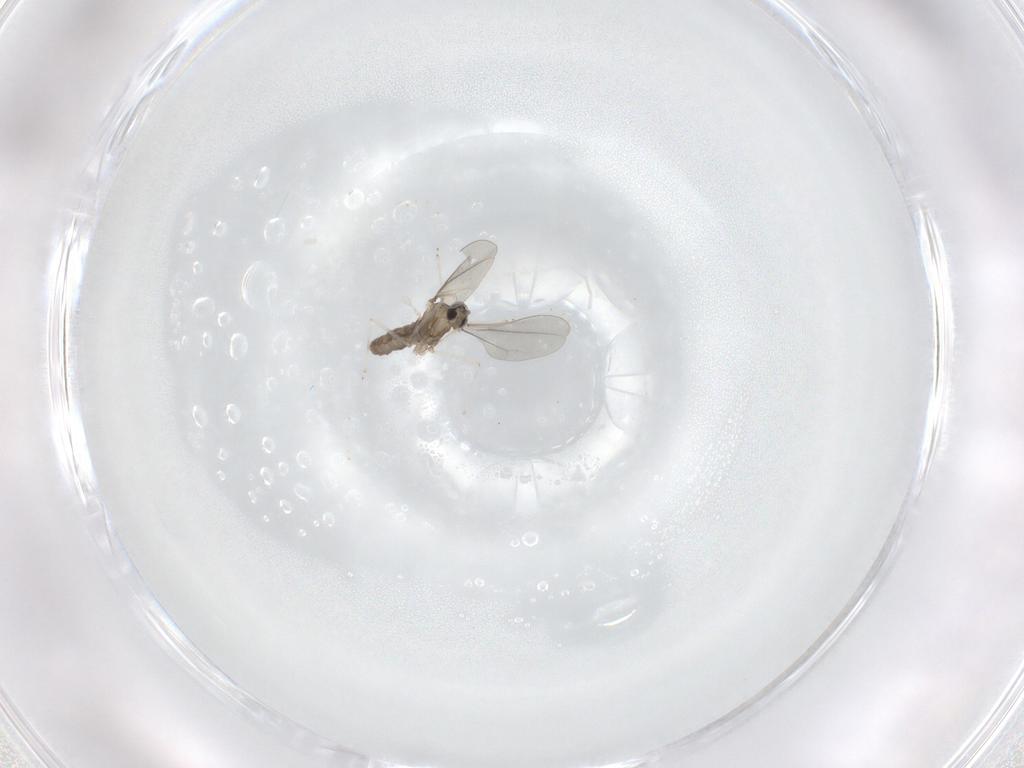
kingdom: Animalia
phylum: Arthropoda
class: Insecta
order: Diptera
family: Cecidomyiidae
